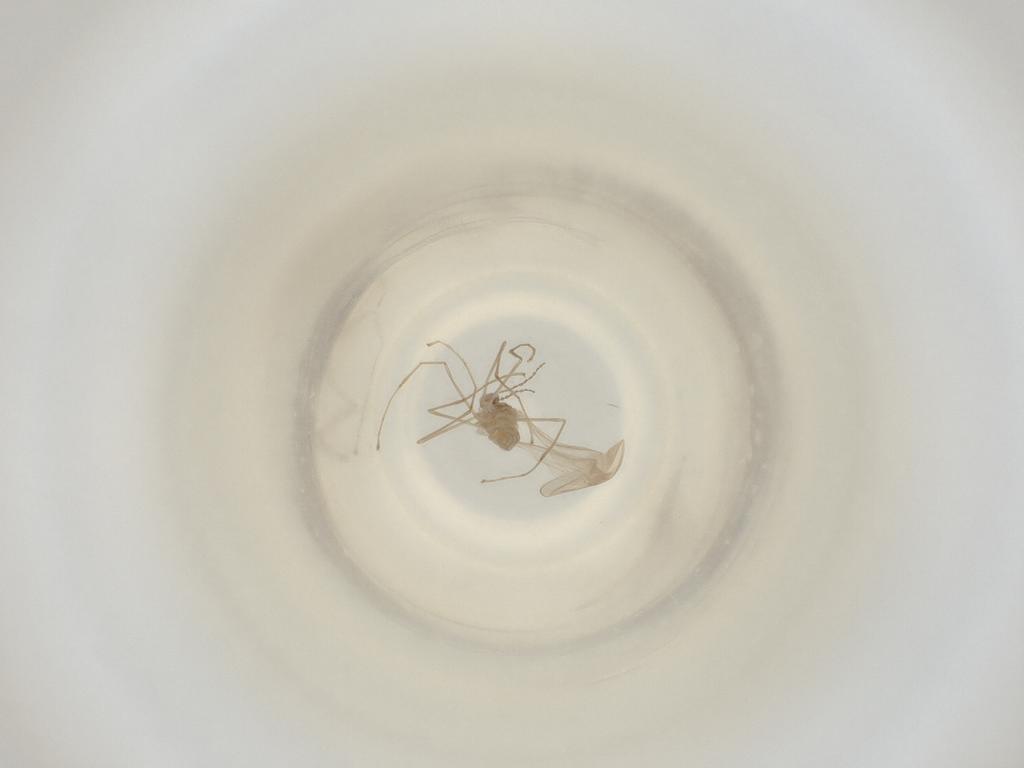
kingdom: Animalia
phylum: Arthropoda
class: Insecta
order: Diptera
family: Cecidomyiidae
